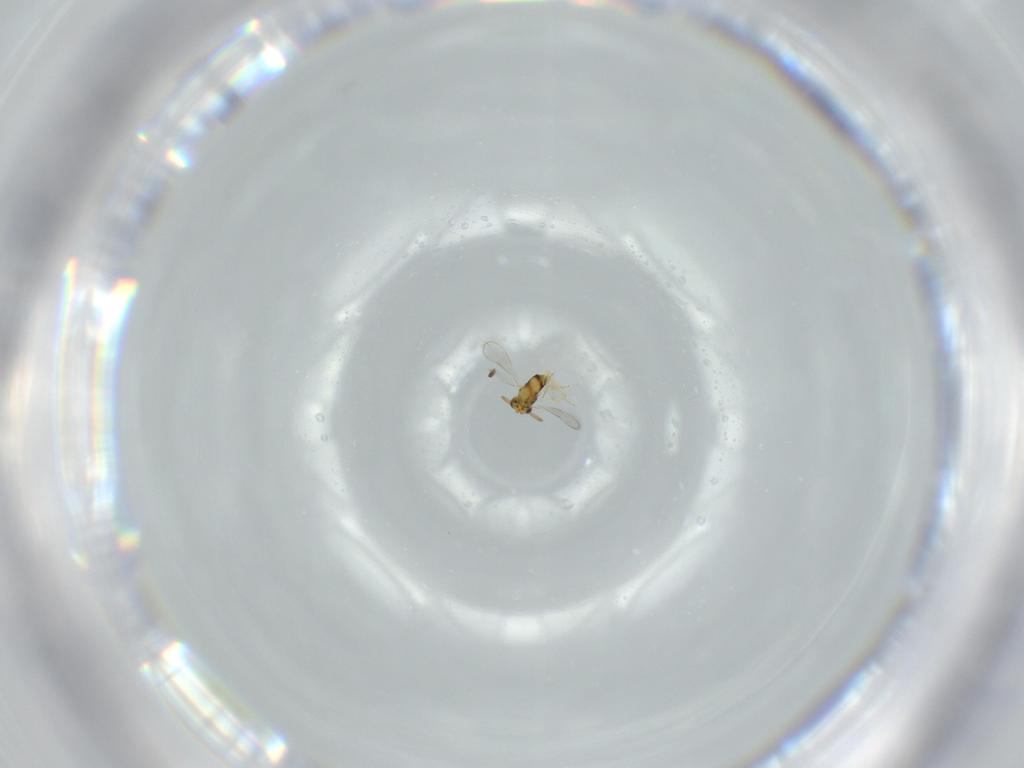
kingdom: Animalia
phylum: Arthropoda
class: Insecta
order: Hymenoptera
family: Aphelinidae
